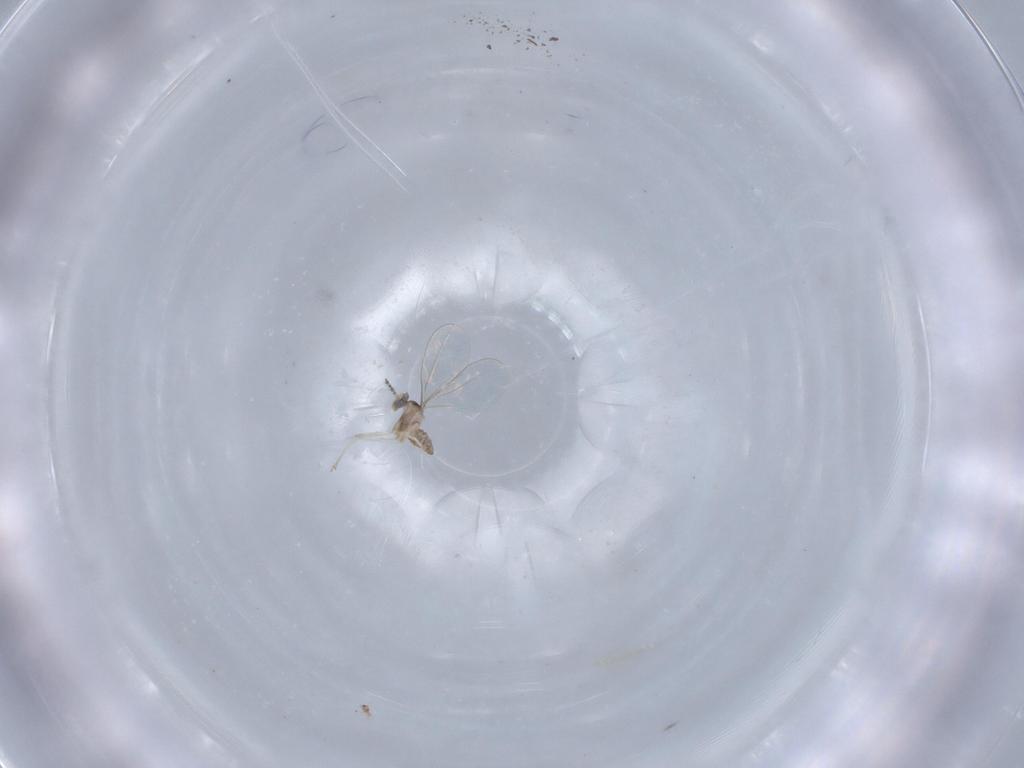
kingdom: Animalia
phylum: Arthropoda
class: Insecta
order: Diptera
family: Cecidomyiidae
